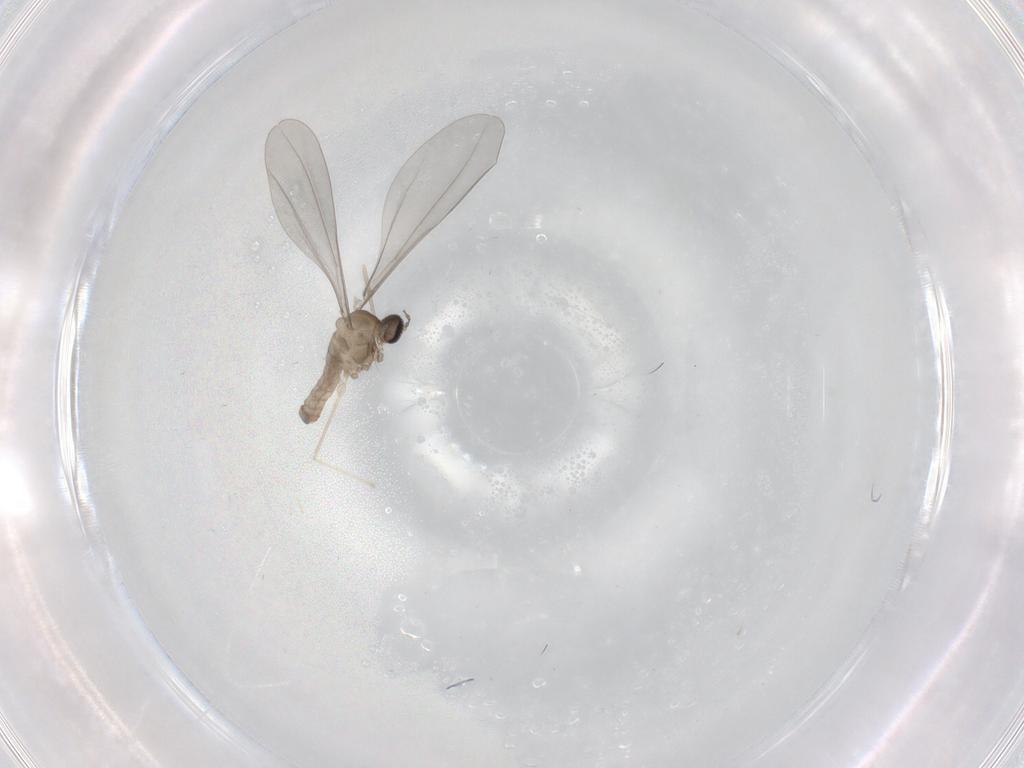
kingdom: Animalia
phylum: Arthropoda
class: Insecta
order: Diptera
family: Cecidomyiidae
